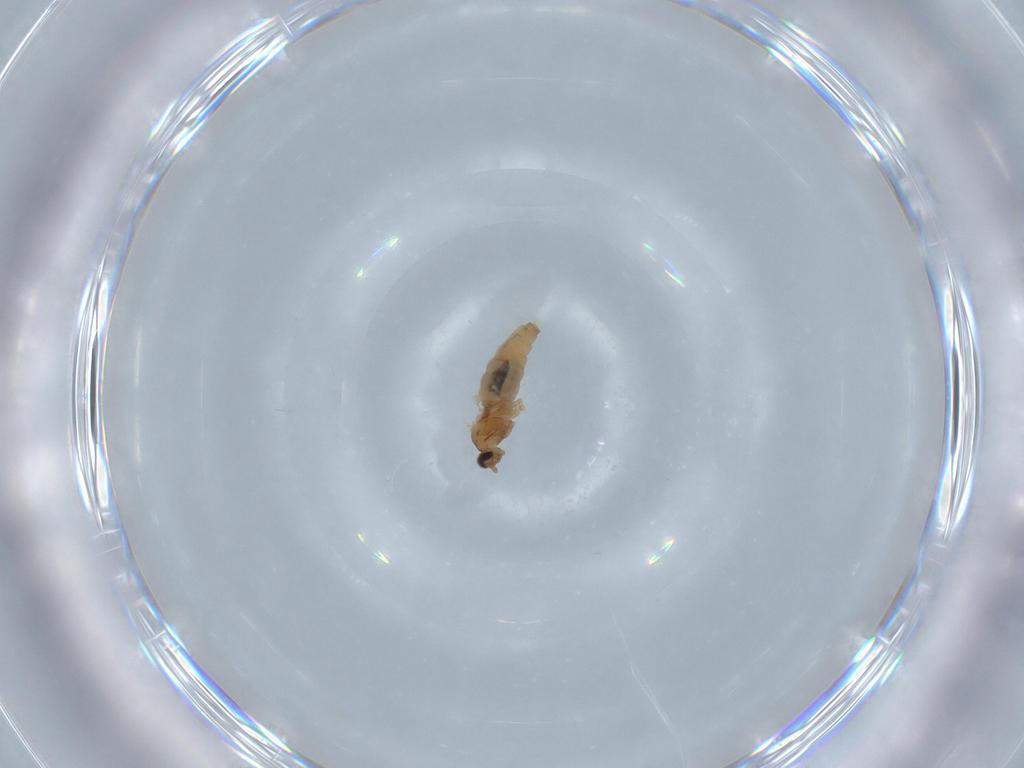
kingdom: Animalia
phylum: Arthropoda
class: Insecta
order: Diptera
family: Cecidomyiidae
